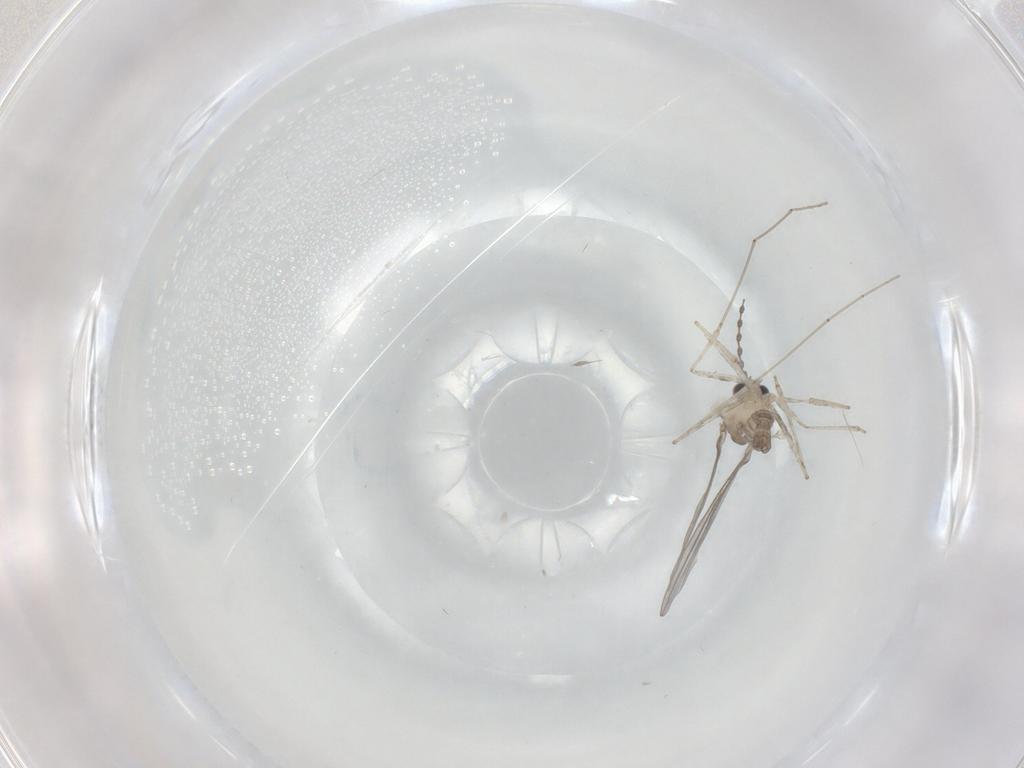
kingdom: Animalia
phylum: Arthropoda
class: Insecta
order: Diptera
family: Cecidomyiidae
